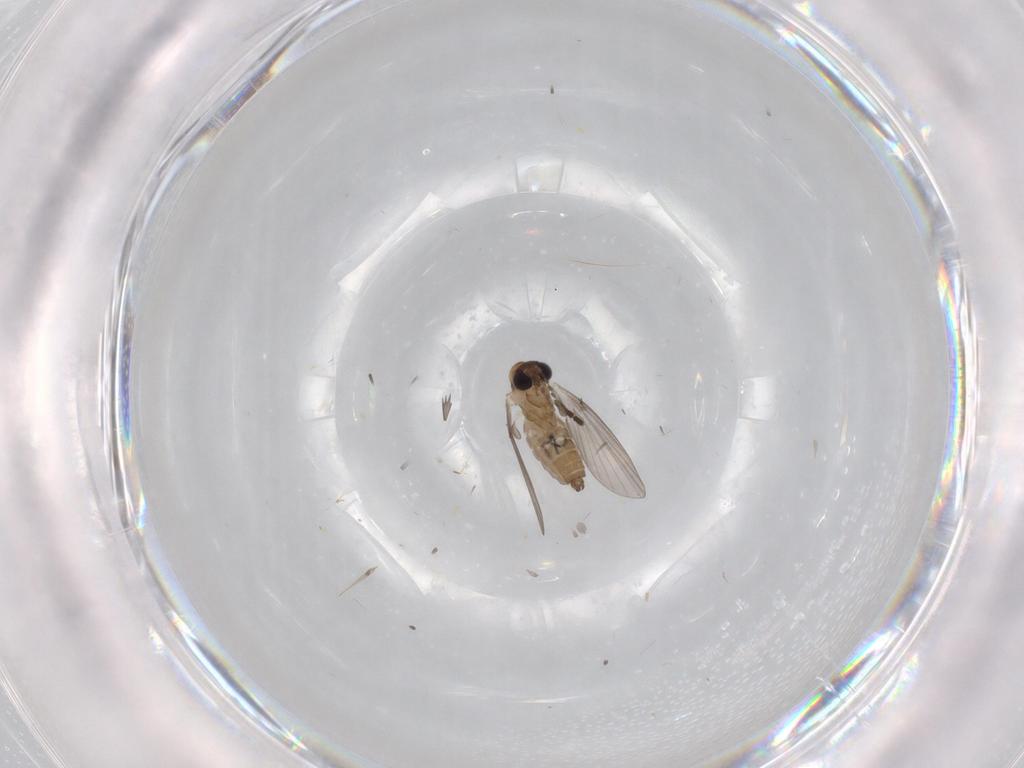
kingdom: Animalia
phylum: Arthropoda
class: Insecta
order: Diptera
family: Sciaridae
